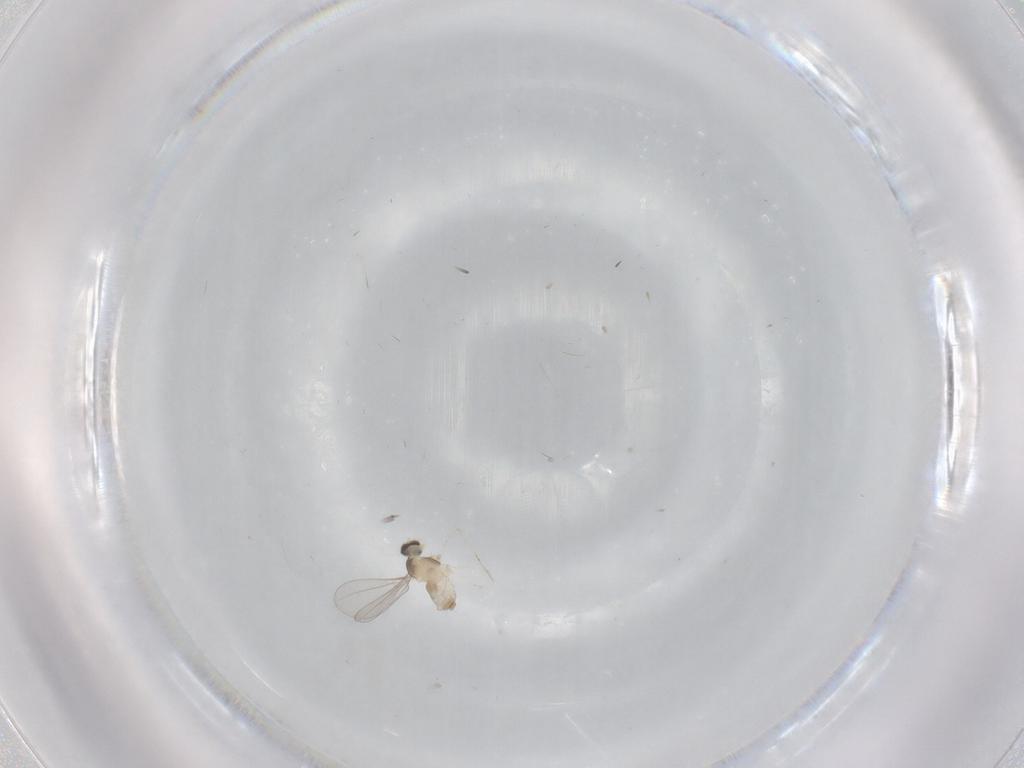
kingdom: Animalia
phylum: Arthropoda
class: Insecta
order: Diptera
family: Cecidomyiidae
